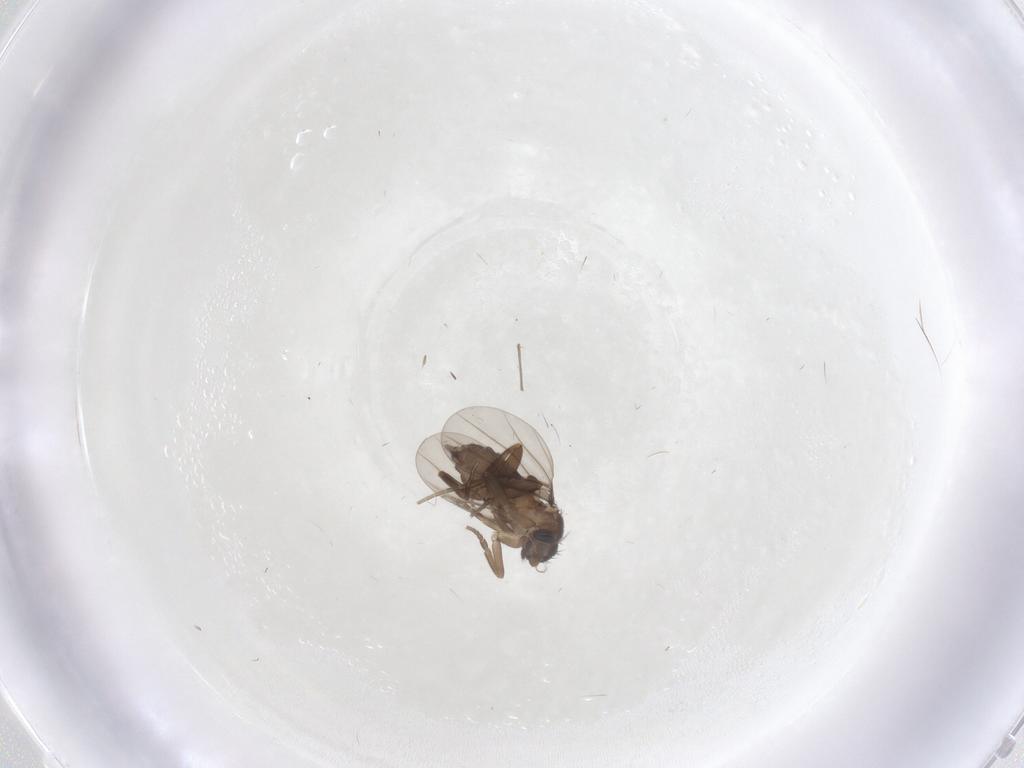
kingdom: Animalia
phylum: Arthropoda
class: Insecta
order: Diptera
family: Phoridae
